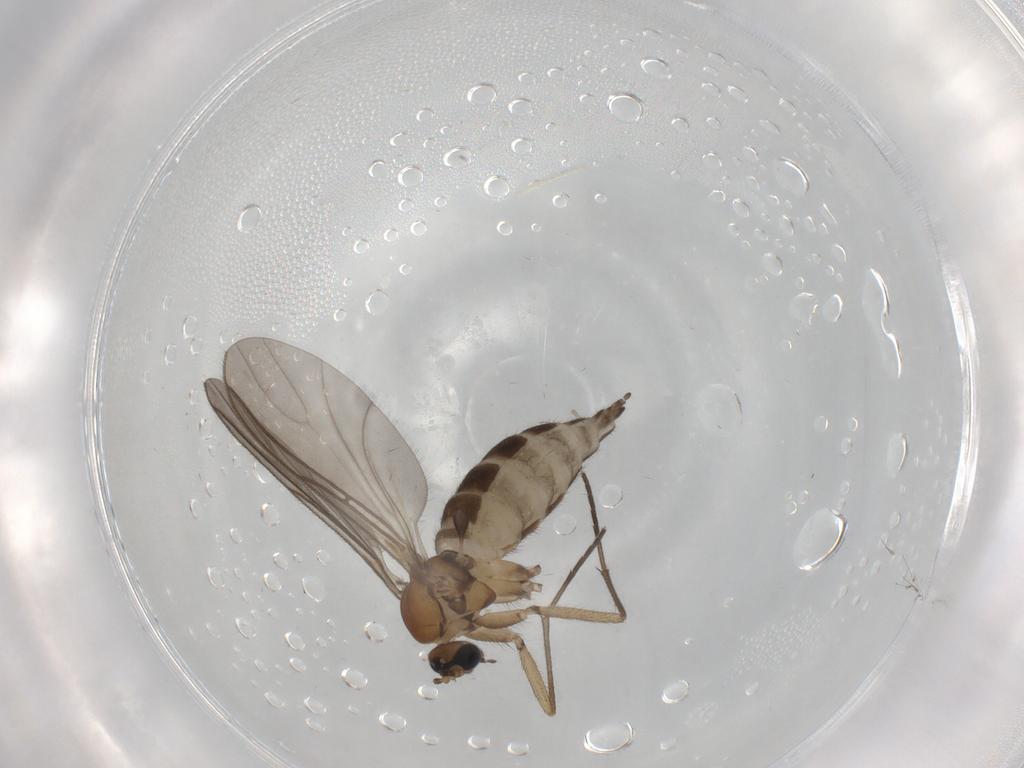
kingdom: Animalia
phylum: Arthropoda
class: Insecta
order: Diptera
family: Sciaridae
